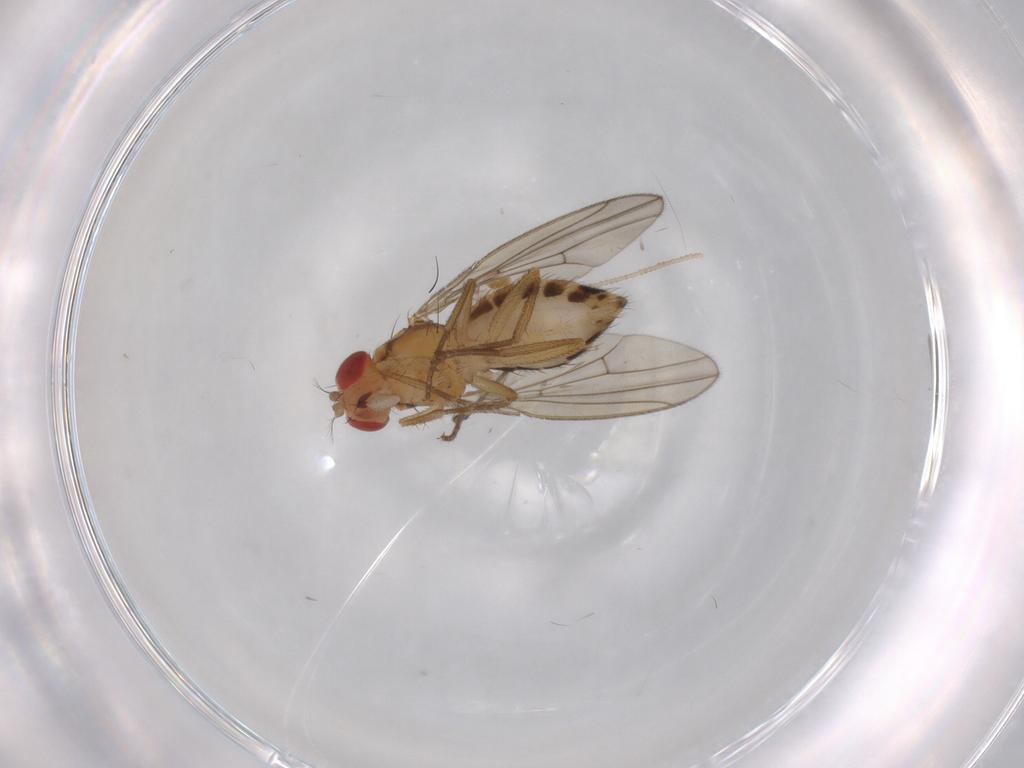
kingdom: Animalia
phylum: Arthropoda
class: Insecta
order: Diptera
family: Drosophilidae
